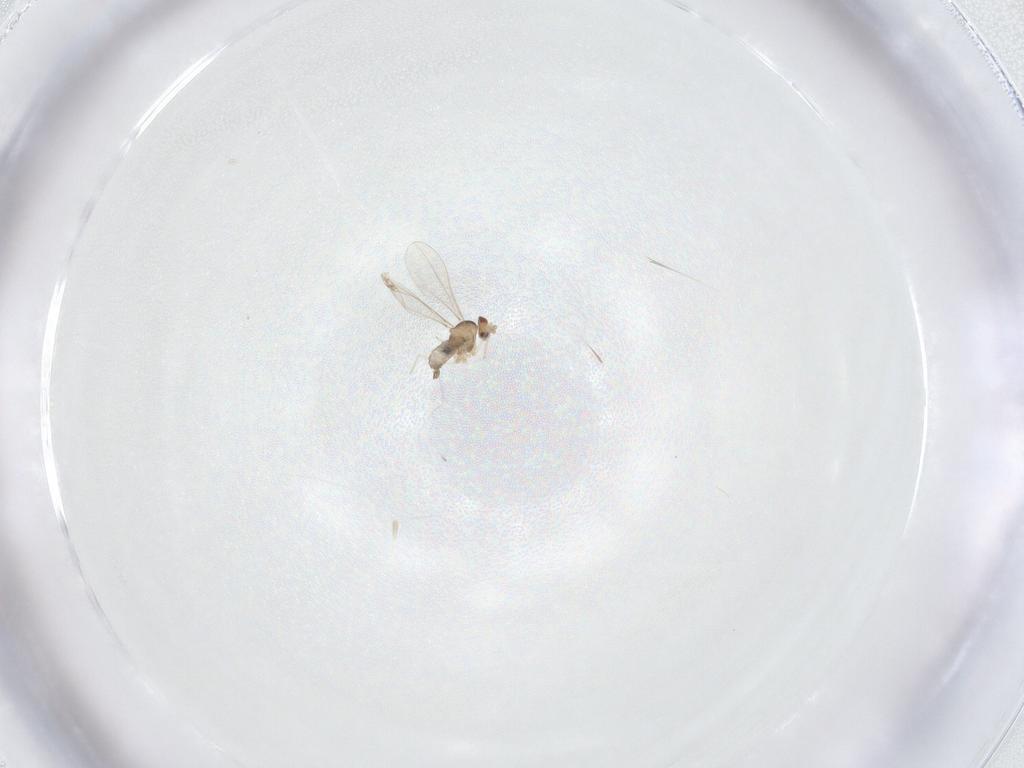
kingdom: Animalia
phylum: Arthropoda
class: Insecta
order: Diptera
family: Cecidomyiidae
